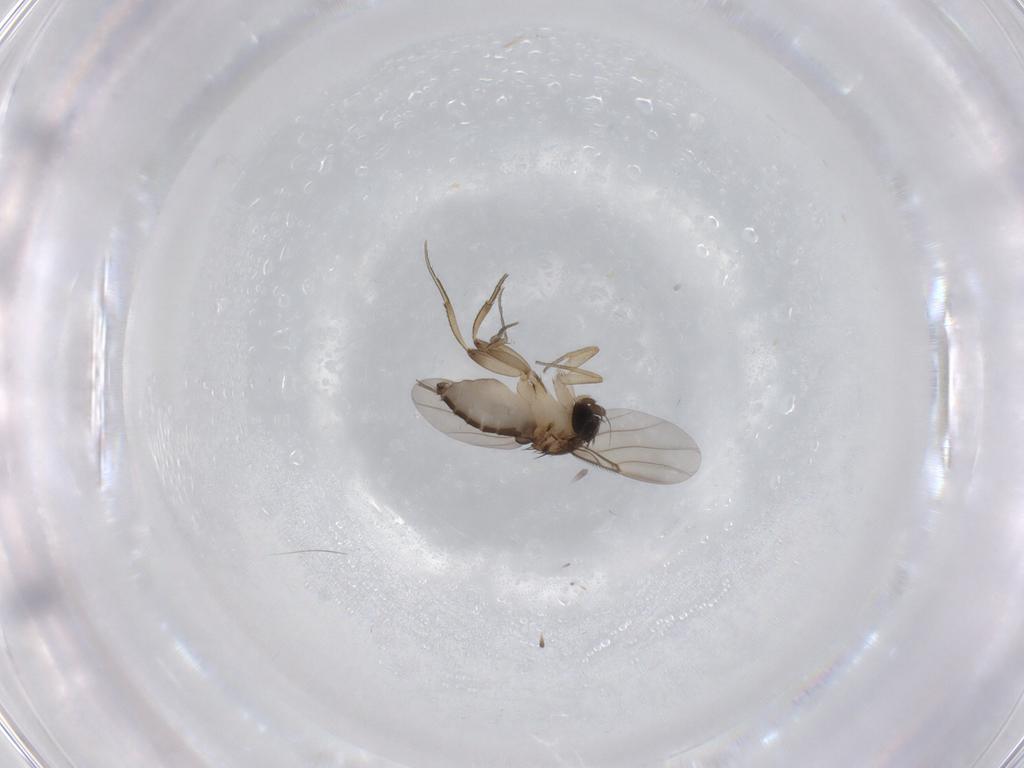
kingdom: Animalia
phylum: Arthropoda
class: Insecta
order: Diptera
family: Phoridae
